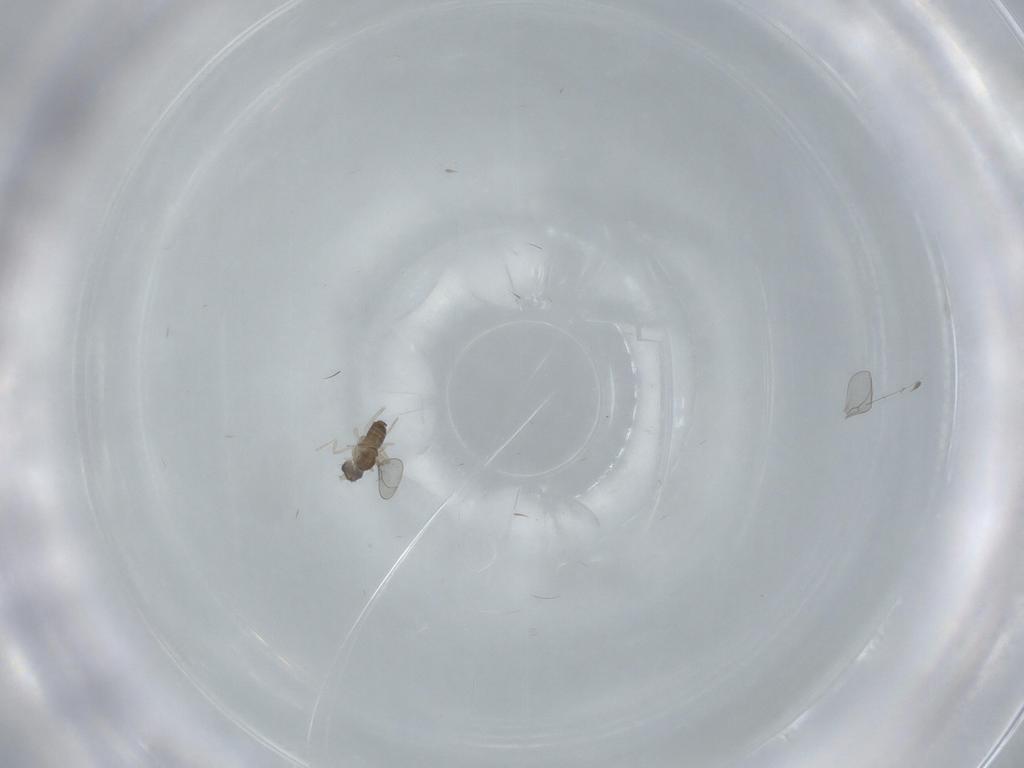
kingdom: Animalia
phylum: Arthropoda
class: Insecta
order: Diptera
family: Cecidomyiidae
